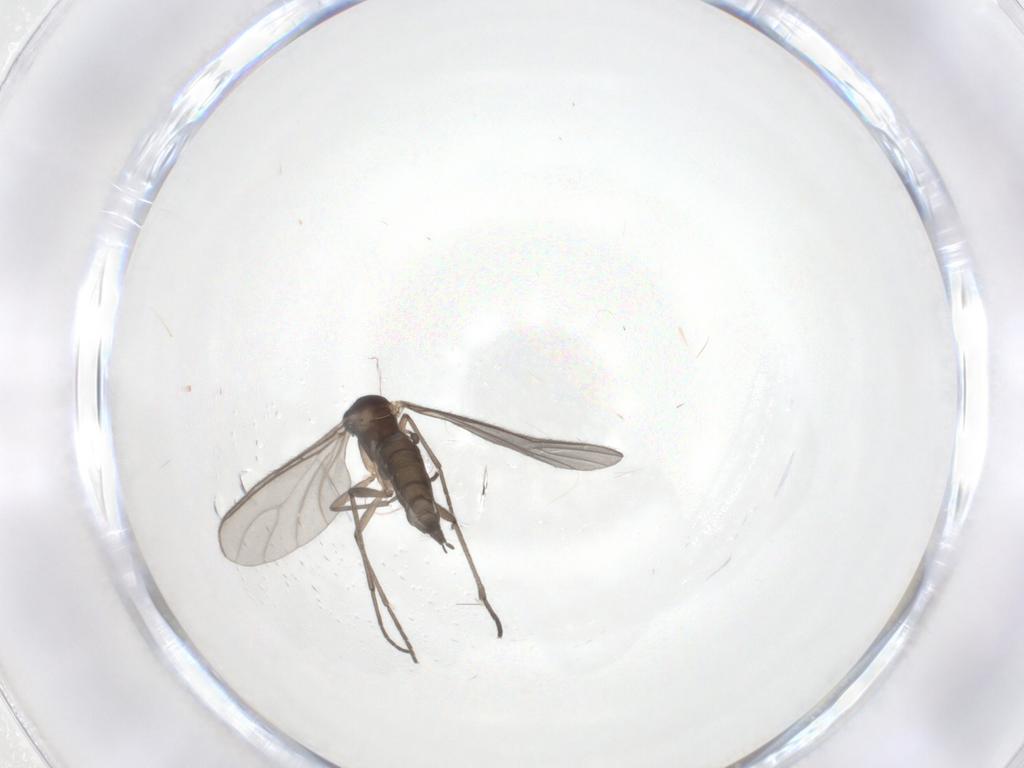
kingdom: Animalia
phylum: Arthropoda
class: Insecta
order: Diptera
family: Sciaridae
